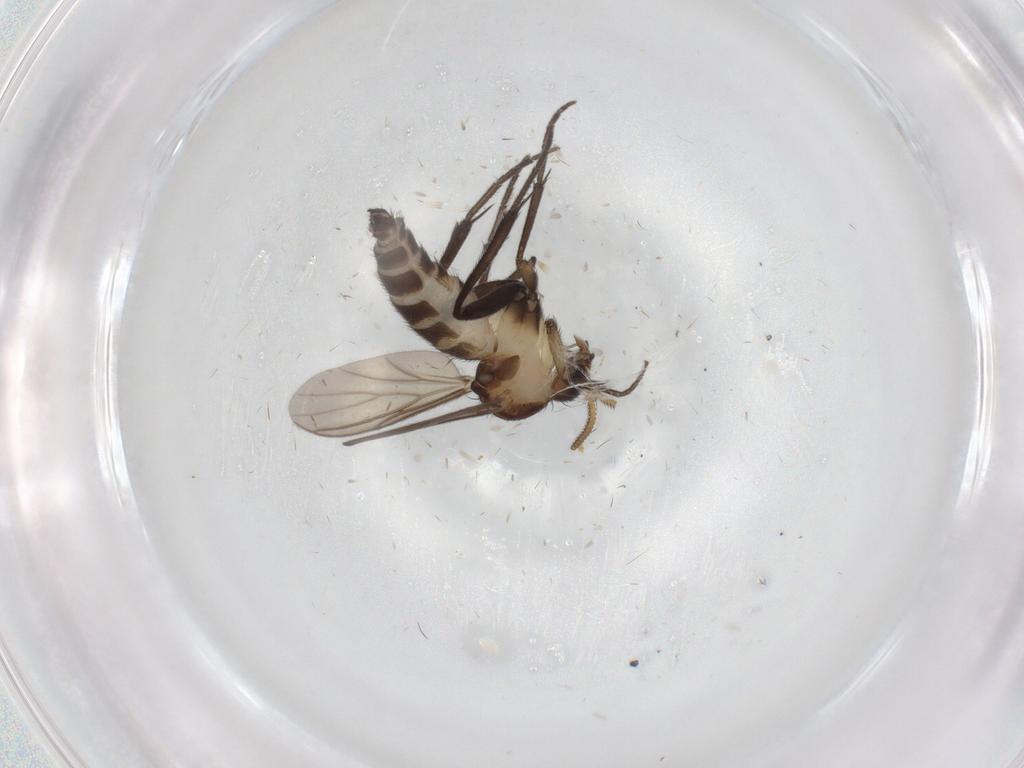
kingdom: Animalia
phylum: Arthropoda
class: Insecta
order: Diptera
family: Mycetophilidae
